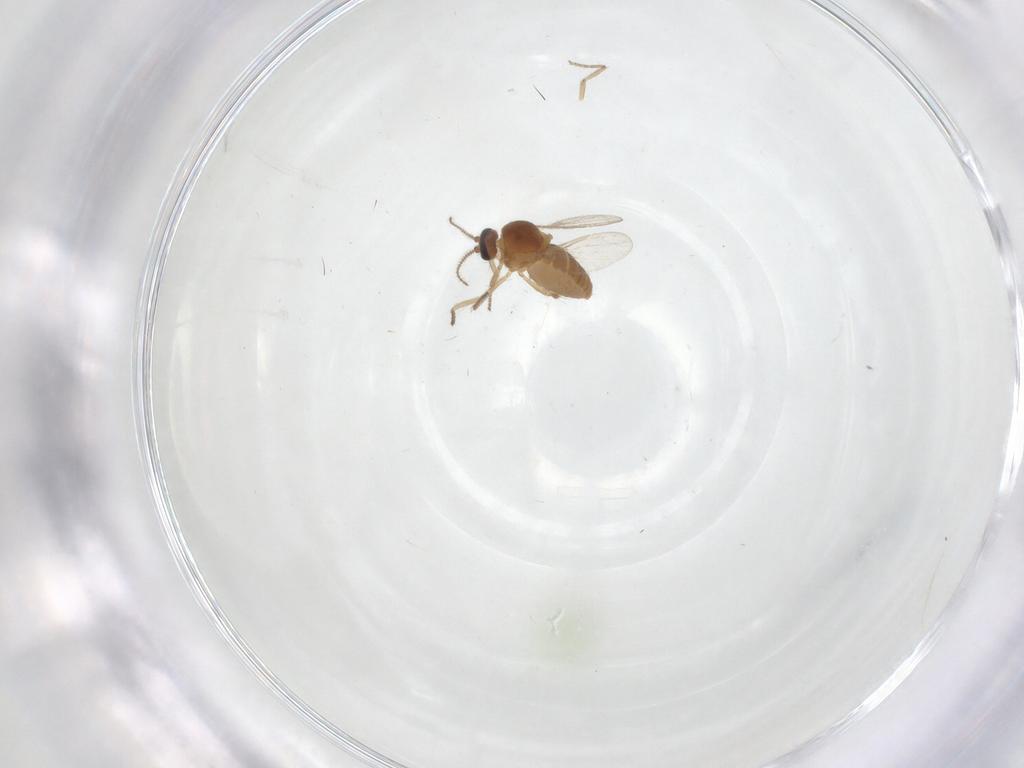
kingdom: Animalia
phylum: Arthropoda
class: Insecta
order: Diptera
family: Ceratopogonidae
